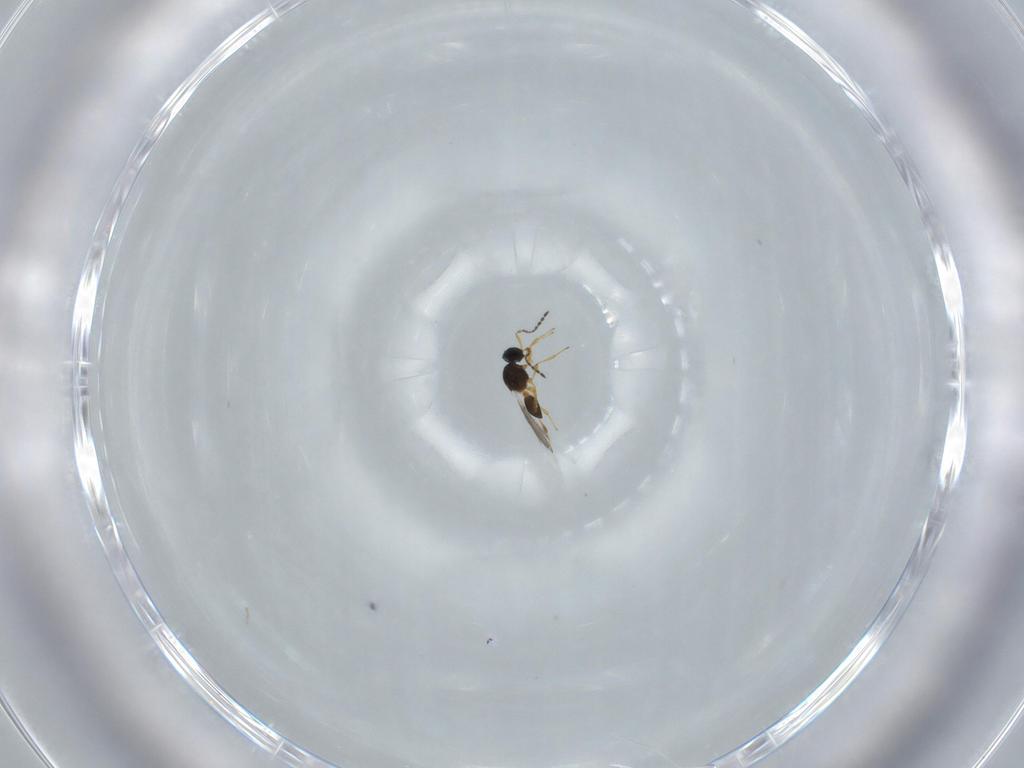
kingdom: Animalia
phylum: Arthropoda
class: Insecta
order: Hymenoptera
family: Platygastridae
